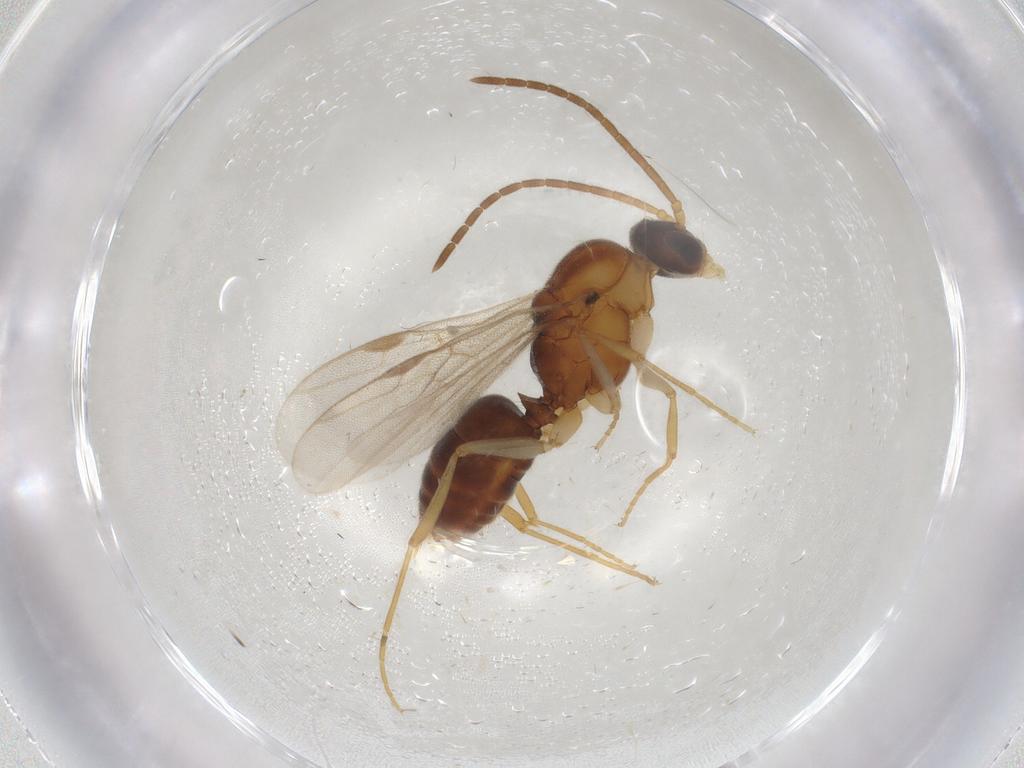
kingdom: Animalia
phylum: Arthropoda
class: Insecta
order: Hymenoptera
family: Formicidae
